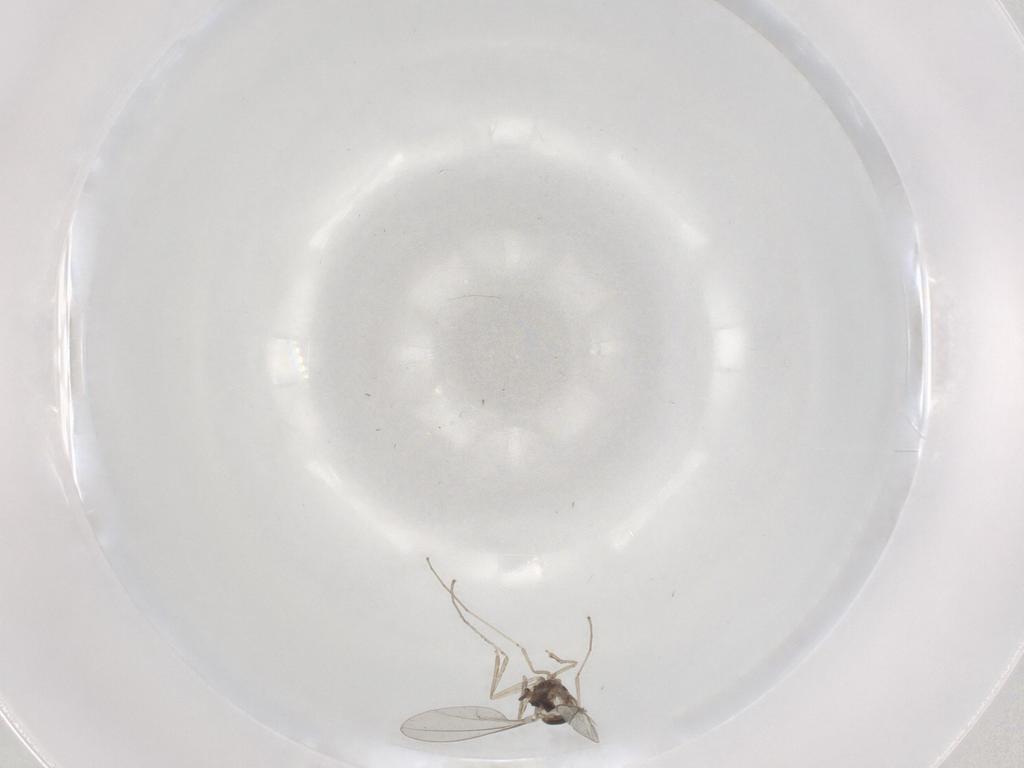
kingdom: Animalia
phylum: Arthropoda
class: Insecta
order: Diptera
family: Cecidomyiidae
